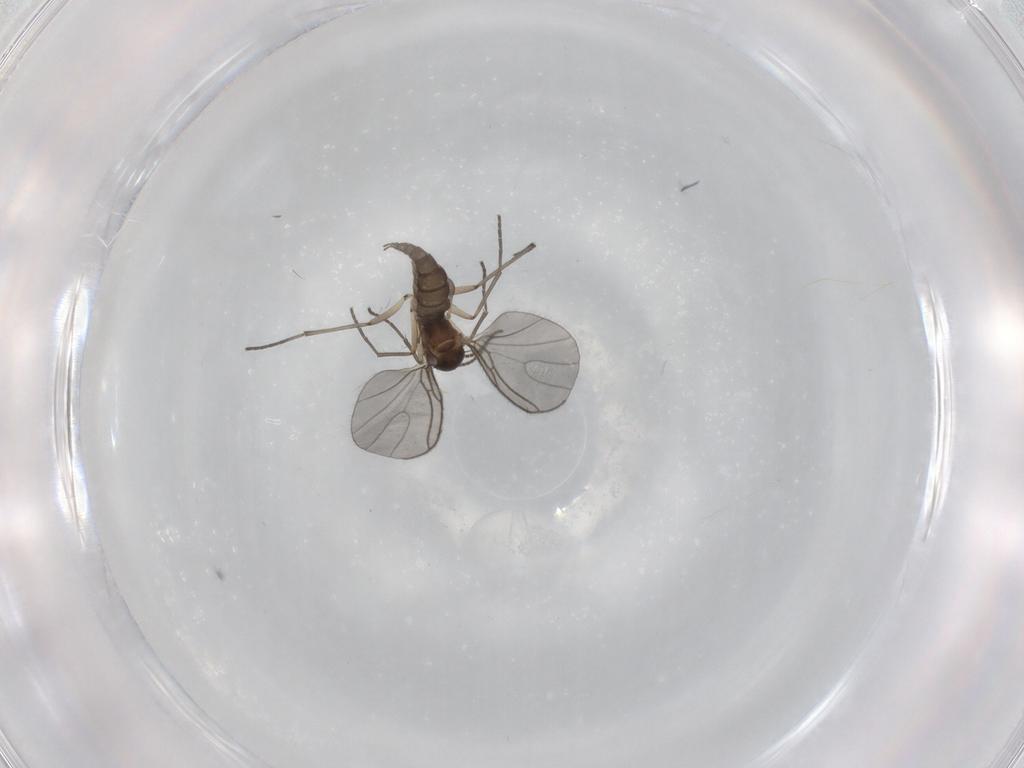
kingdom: Animalia
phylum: Arthropoda
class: Insecta
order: Diptera
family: Sciaridae
